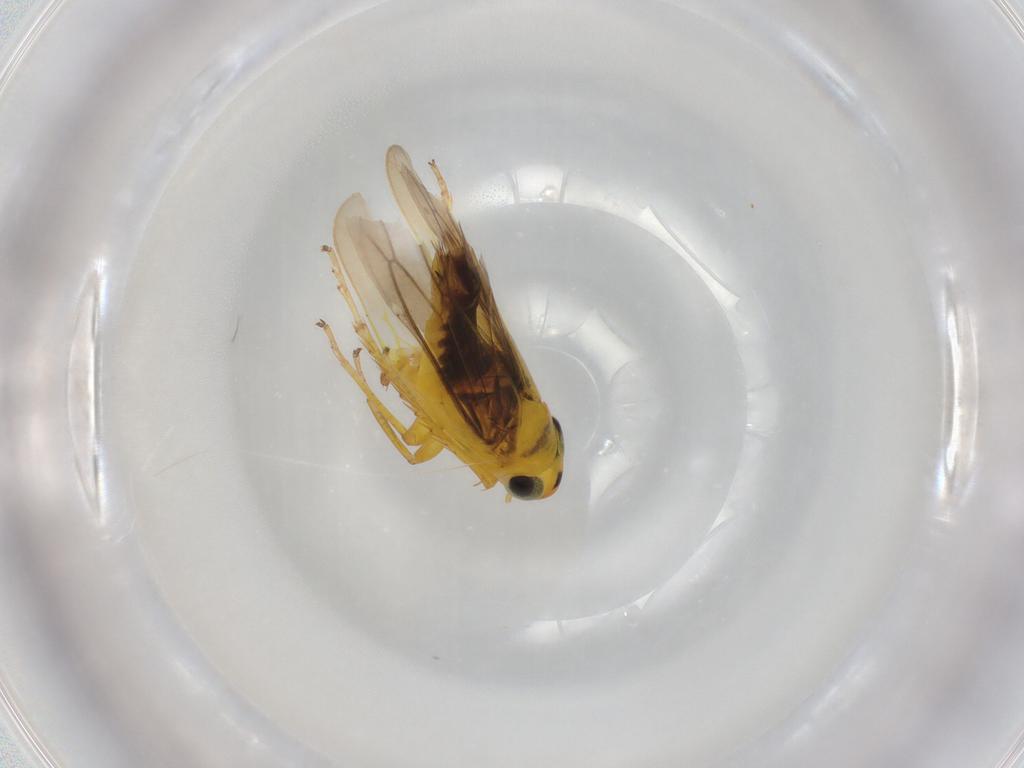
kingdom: Animalia
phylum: Arthropoda
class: Insecta
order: Hemiptera
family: Cicadellidae
